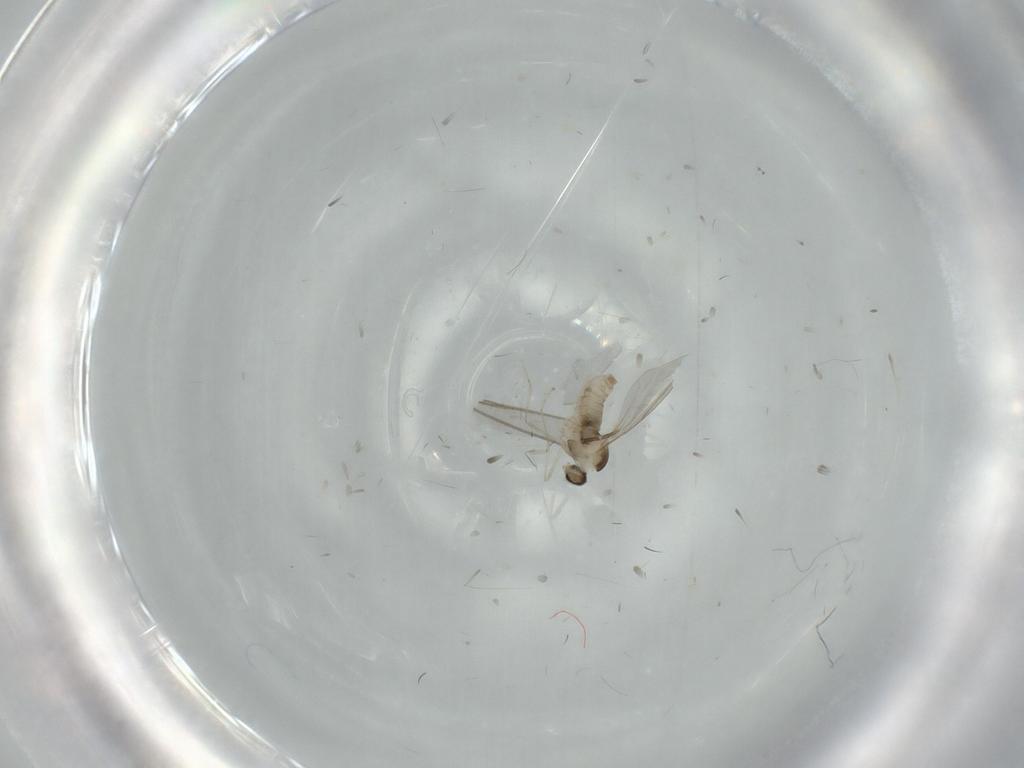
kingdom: Animalia
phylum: Arthropoda
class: Insecta
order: Diptera
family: Cecidomyiidae
